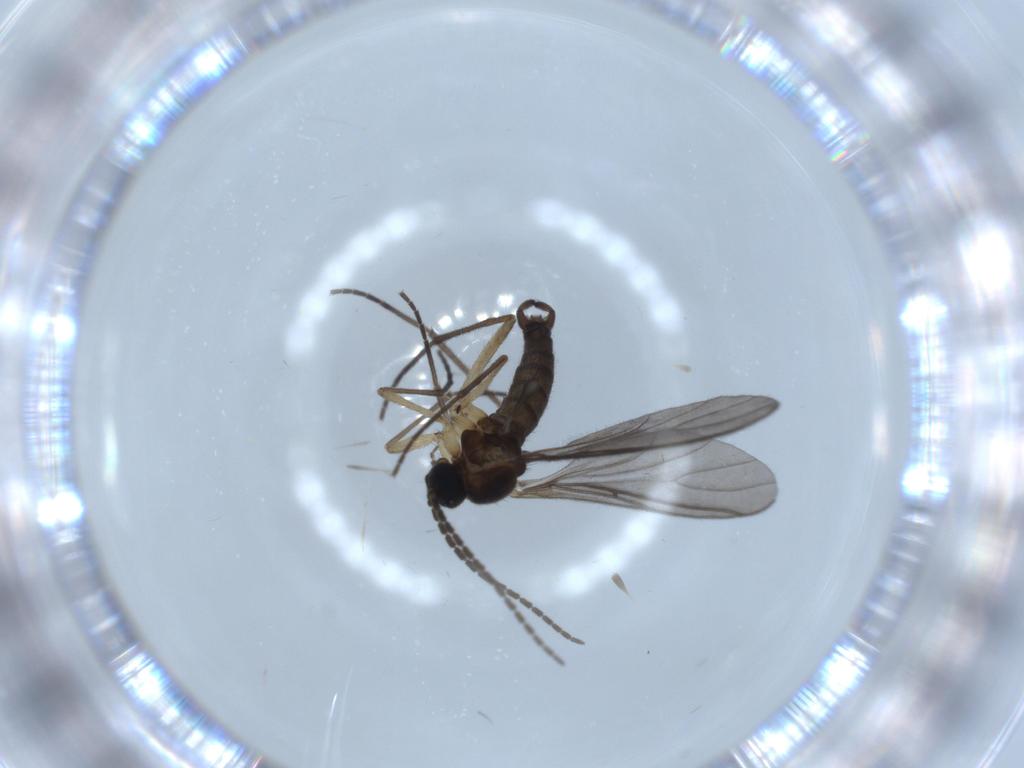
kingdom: Animalia
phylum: Arthropoda
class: Insecta
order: Diptera
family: Sciaridae
